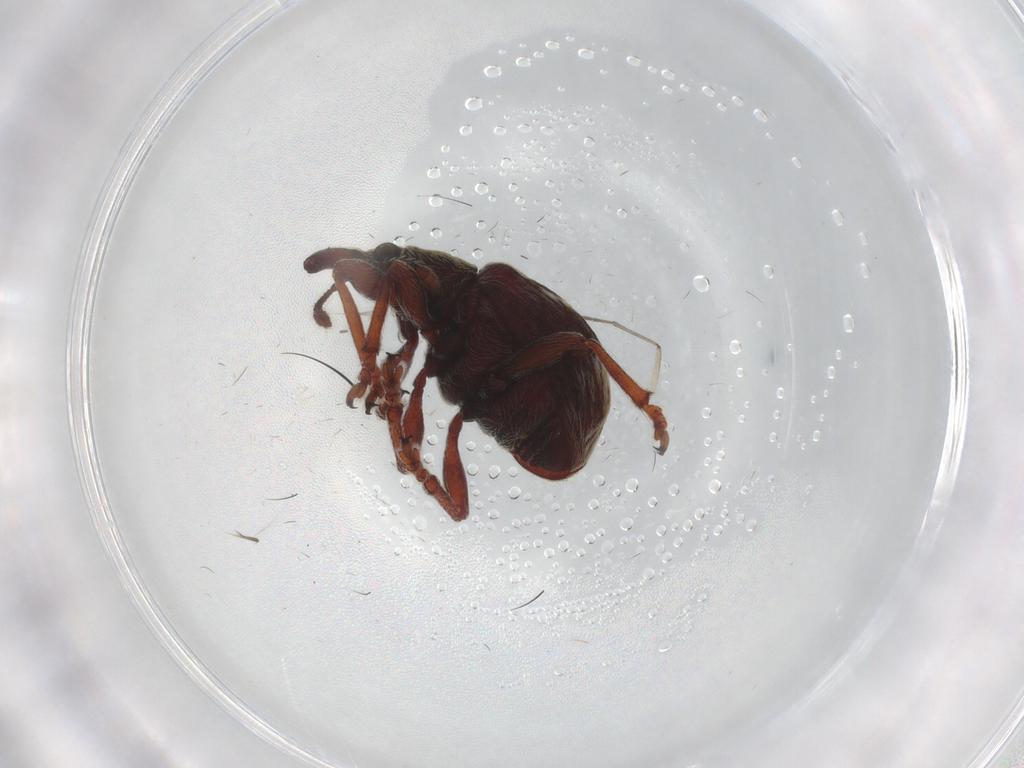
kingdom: Animalia
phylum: Arthropoda
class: Insecta
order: Coleoptera
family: Brentidae
